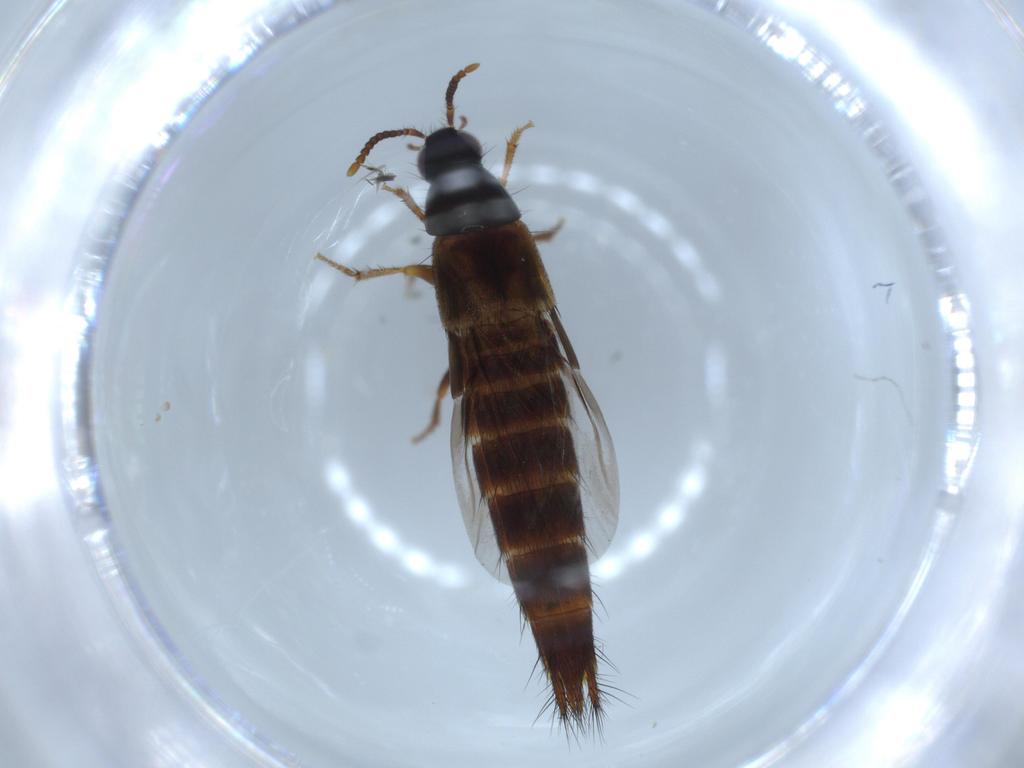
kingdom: Animalia
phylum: Arthropoda
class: Insecta
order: Coleoptera
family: Staphylinidae
